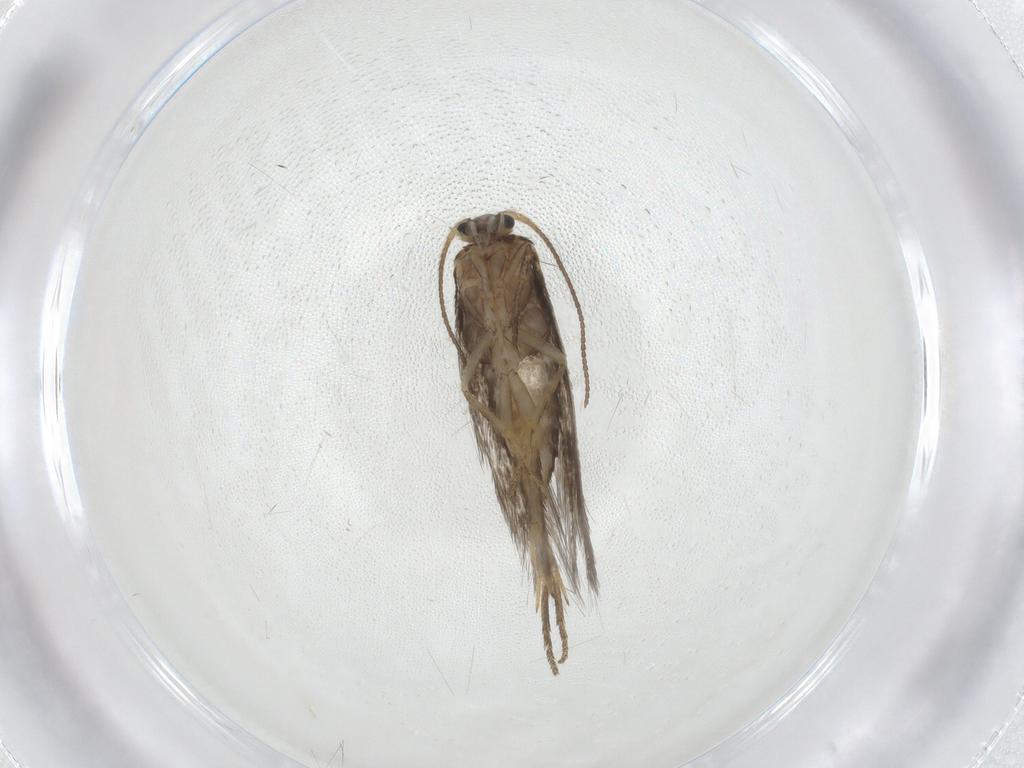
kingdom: Animalia
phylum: Arthropoda
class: Insecta
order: Lepidoptera
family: Nepticulidae
